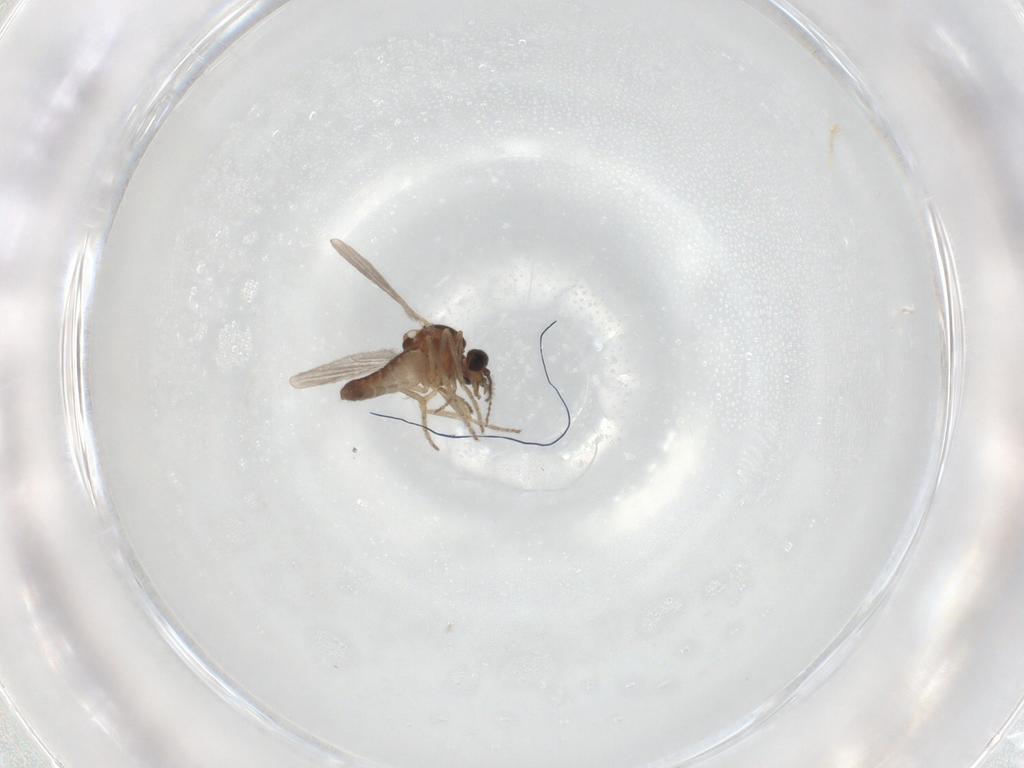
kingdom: Animalia
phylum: Arthropoda
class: Insecta
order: Diptera
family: Ceratopogonidae
